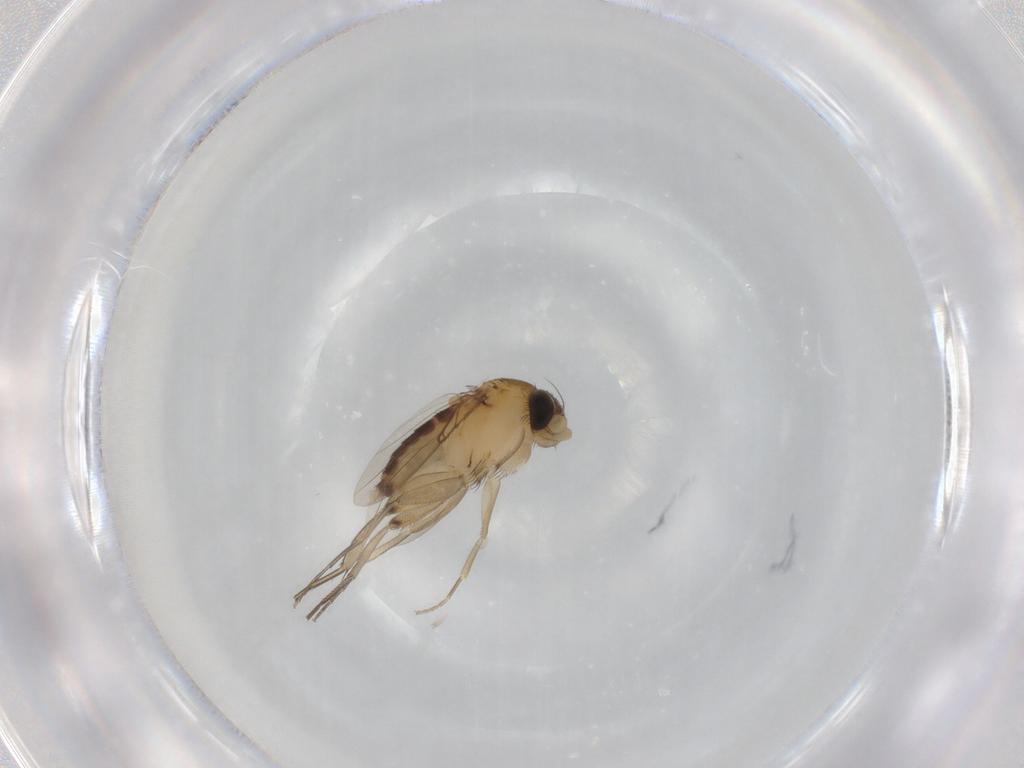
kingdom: Animalia
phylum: Arthropoda
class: Insecta
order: Diptera
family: Phoridae
